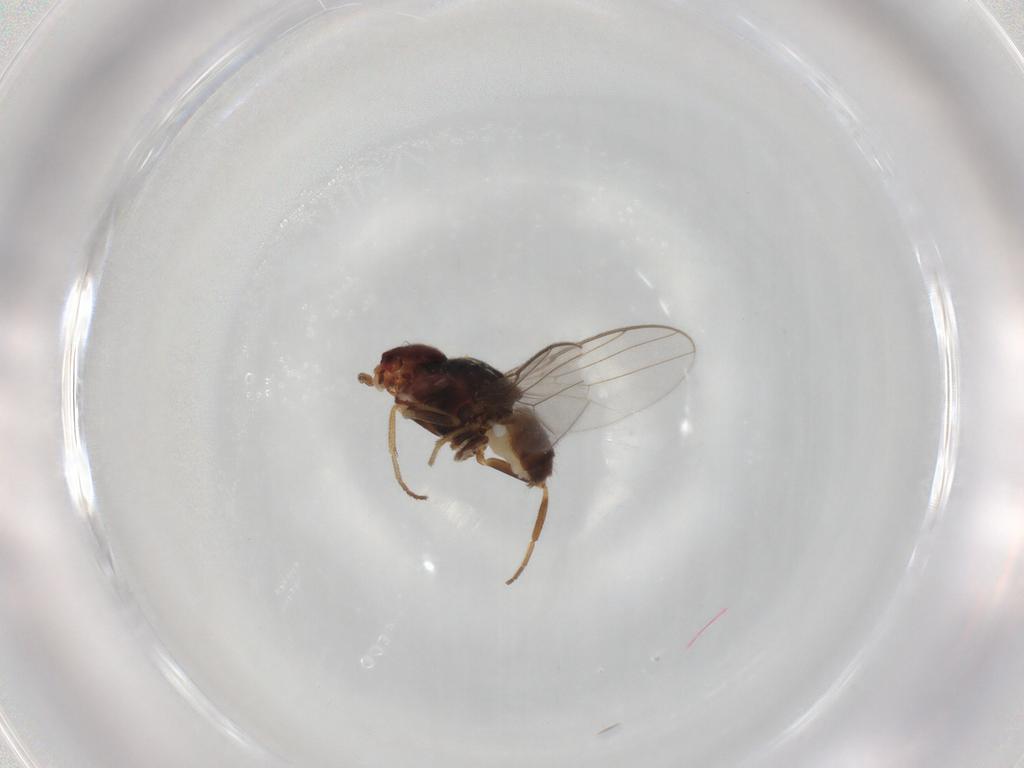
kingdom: Animalia
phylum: Arthropoda
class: Insecta
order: Diptera
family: Chloropidae
